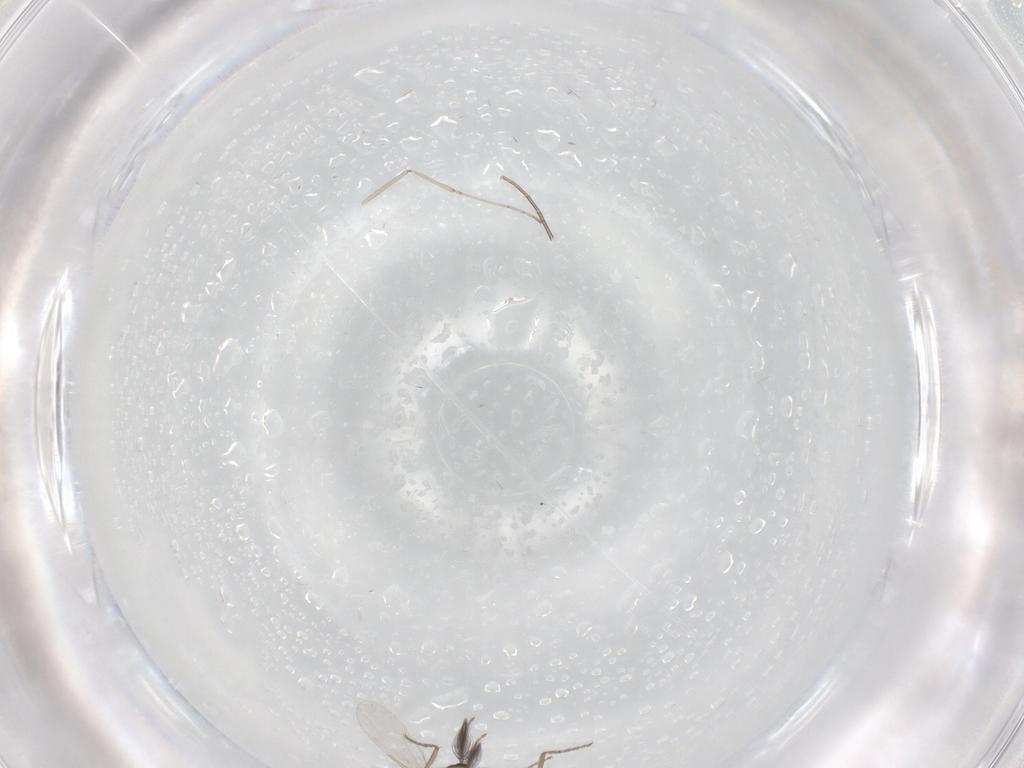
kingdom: Animalia
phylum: Arthropoda
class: Insecta
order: Diptera
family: Ceratopogonidae
